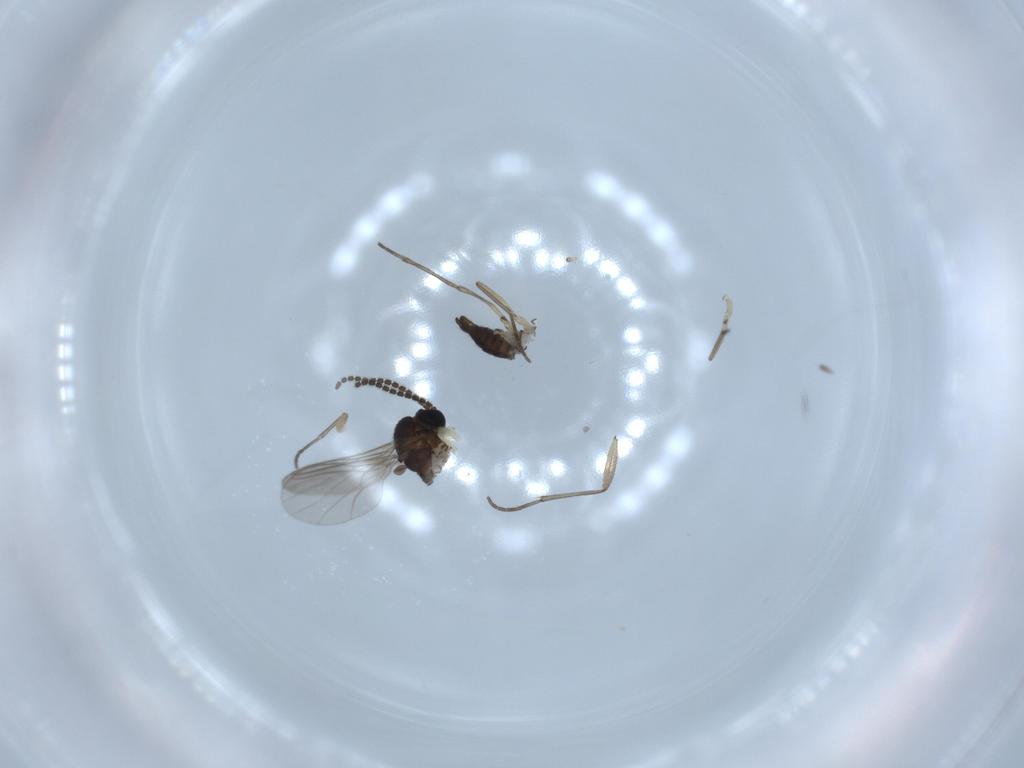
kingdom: Animalia
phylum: Arthropoda
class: Insecta
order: Diptera
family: Sciaridae
